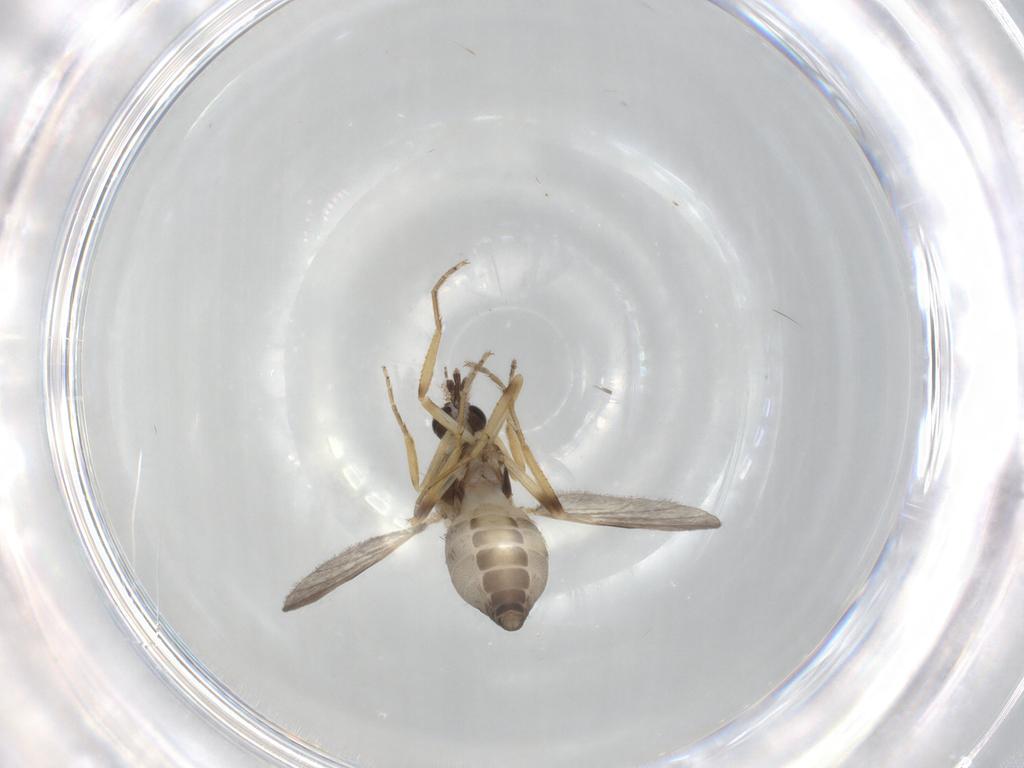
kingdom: Animalia
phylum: Arthropoda
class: Insecta
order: Diptera
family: Ceratopogonidae
